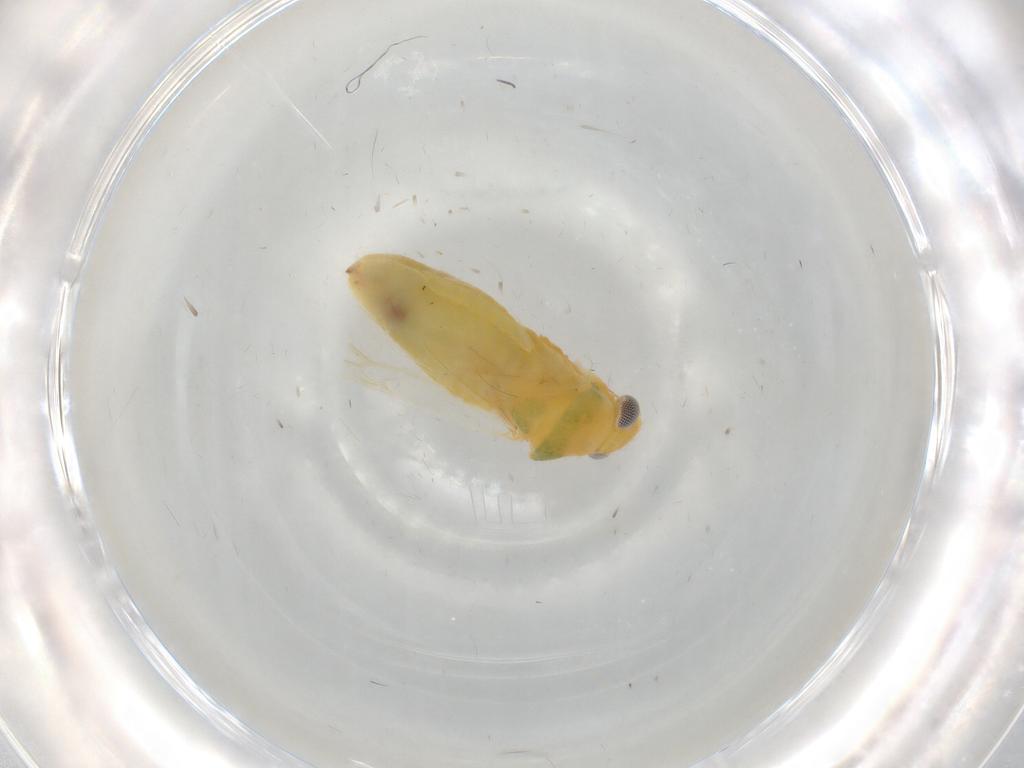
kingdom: Animalia
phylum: Arthropoda
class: Insecta
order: Hemiptera
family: Miridae
